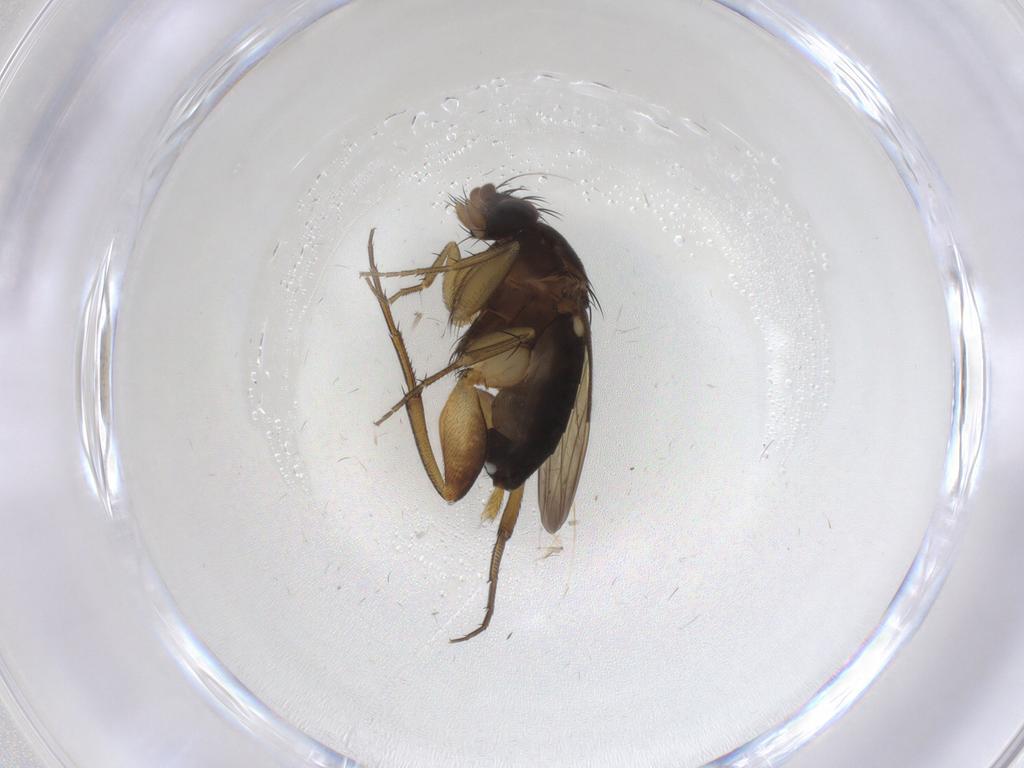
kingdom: Animalia
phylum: Arthropoda
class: Insecta
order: Diptera
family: Phoridae
